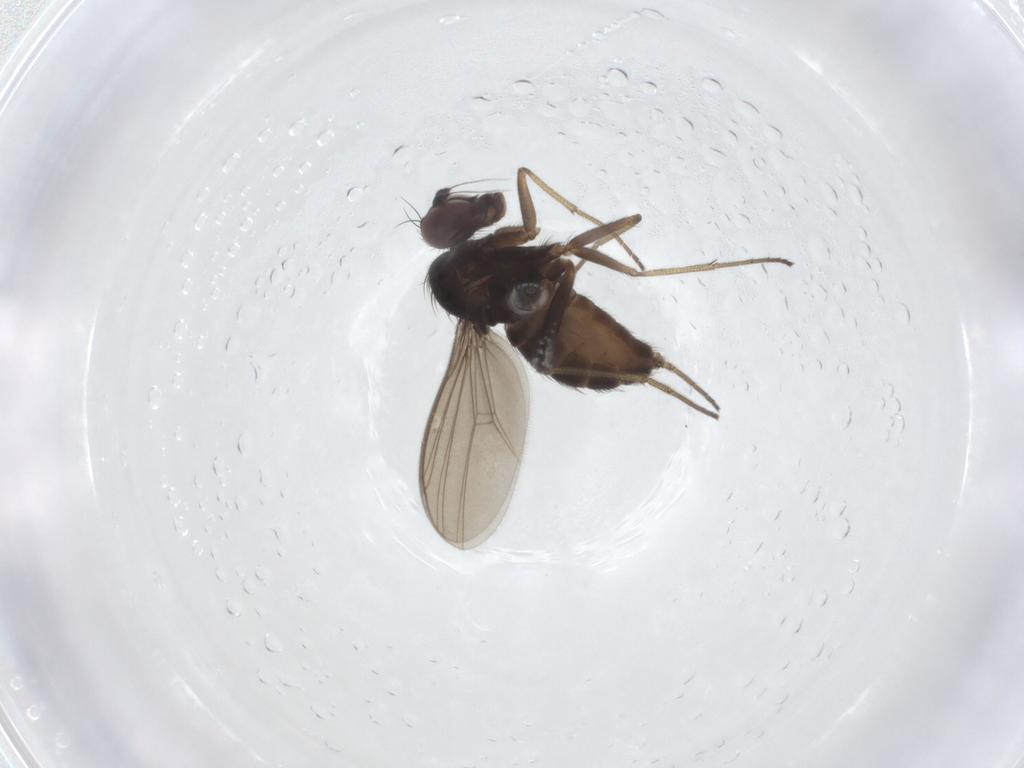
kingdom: Animalia
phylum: Arthropoda
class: Insecta
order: Diptera
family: Dolichopodidae
